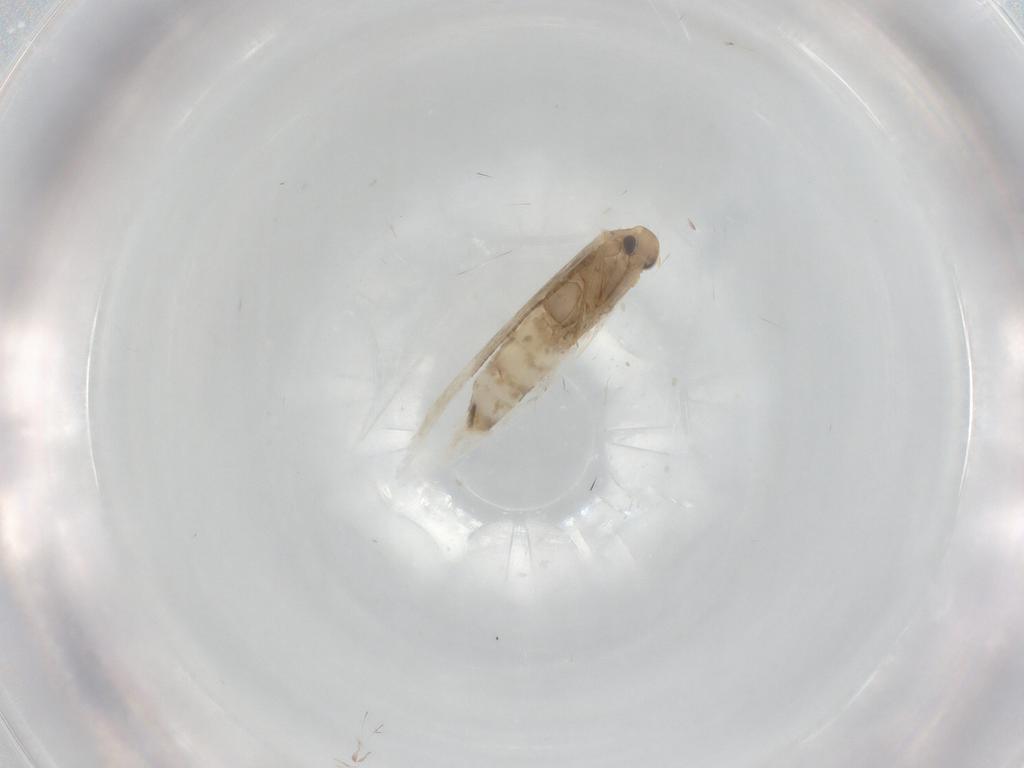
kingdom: Animalia
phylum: Arthropoda
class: Insecta
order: Lepidoptera
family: Gracillariidae
